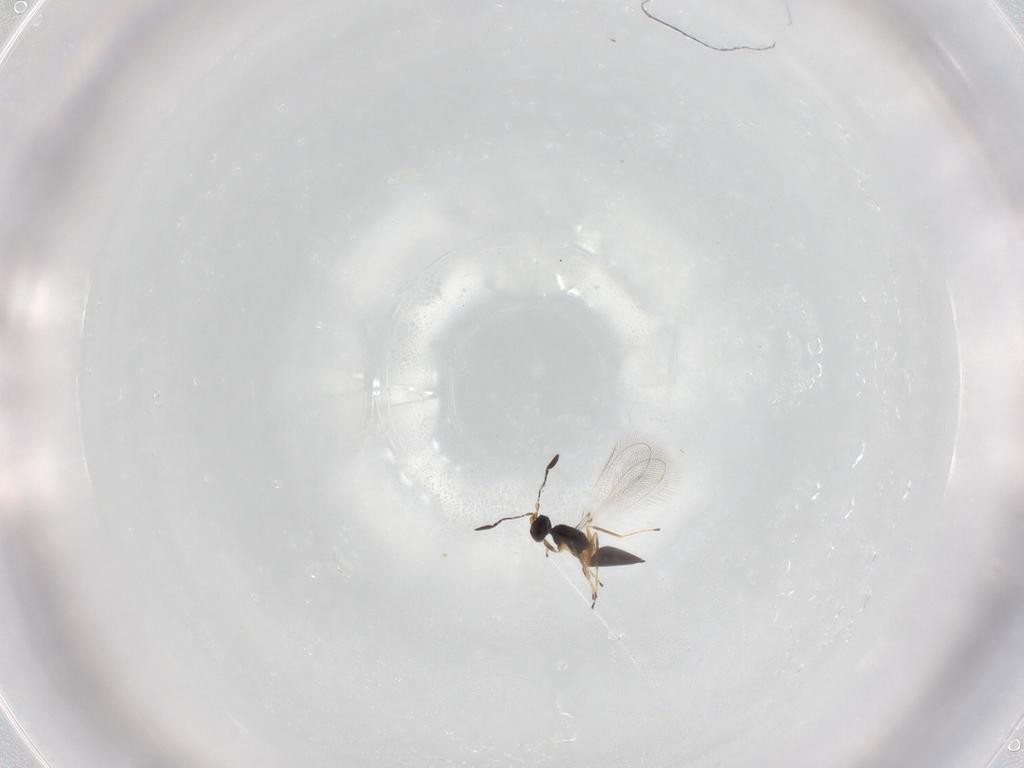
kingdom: Animalia
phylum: Arthropoda
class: Insecta
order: Hymenoptera
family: Mymaridae
